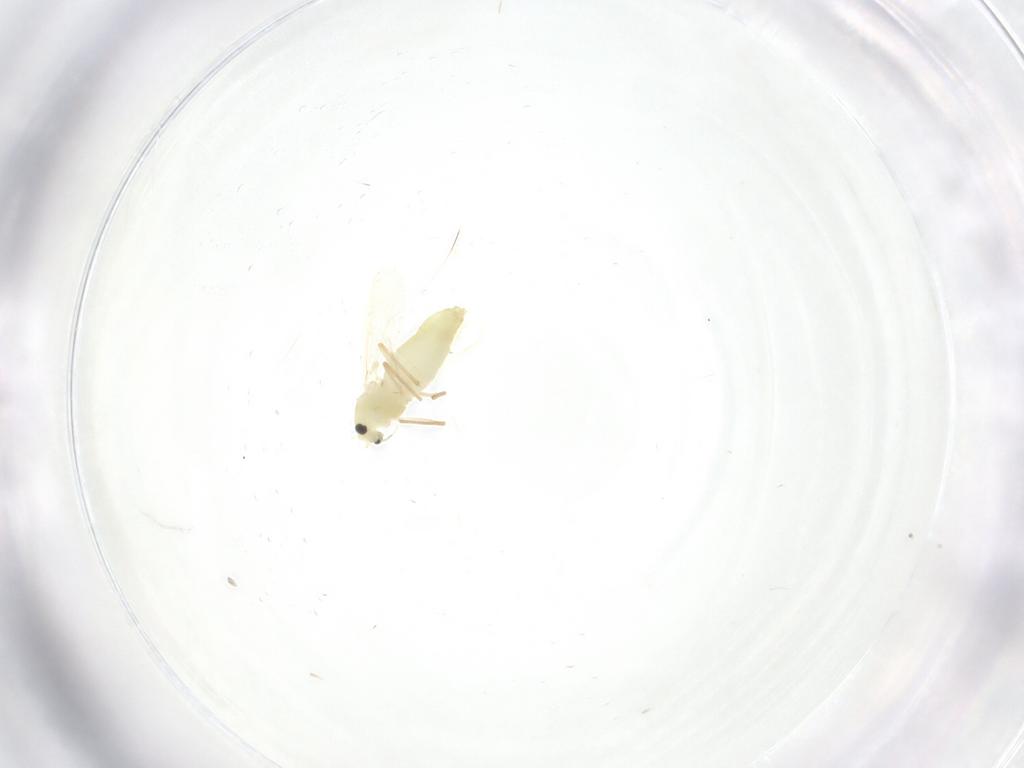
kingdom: Animalia
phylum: Arthropoda
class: Insecta
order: Diptera
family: Chironomidae
